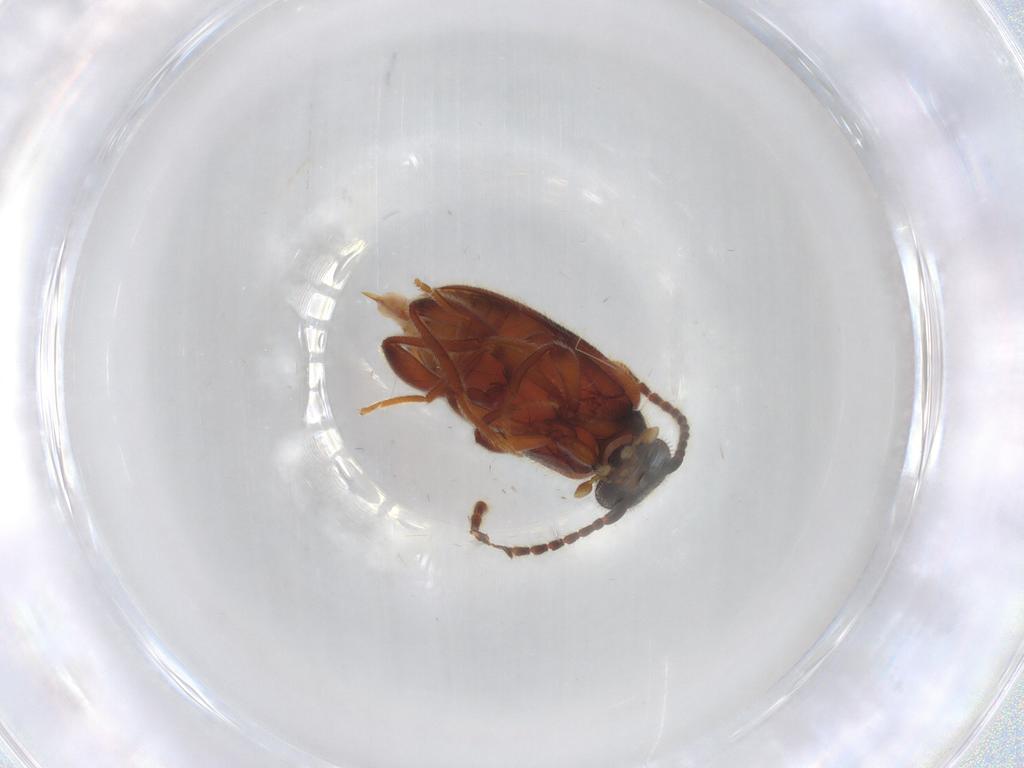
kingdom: Animalia
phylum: Arthropoda
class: Insecta
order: Coleoptera
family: Aderidae
